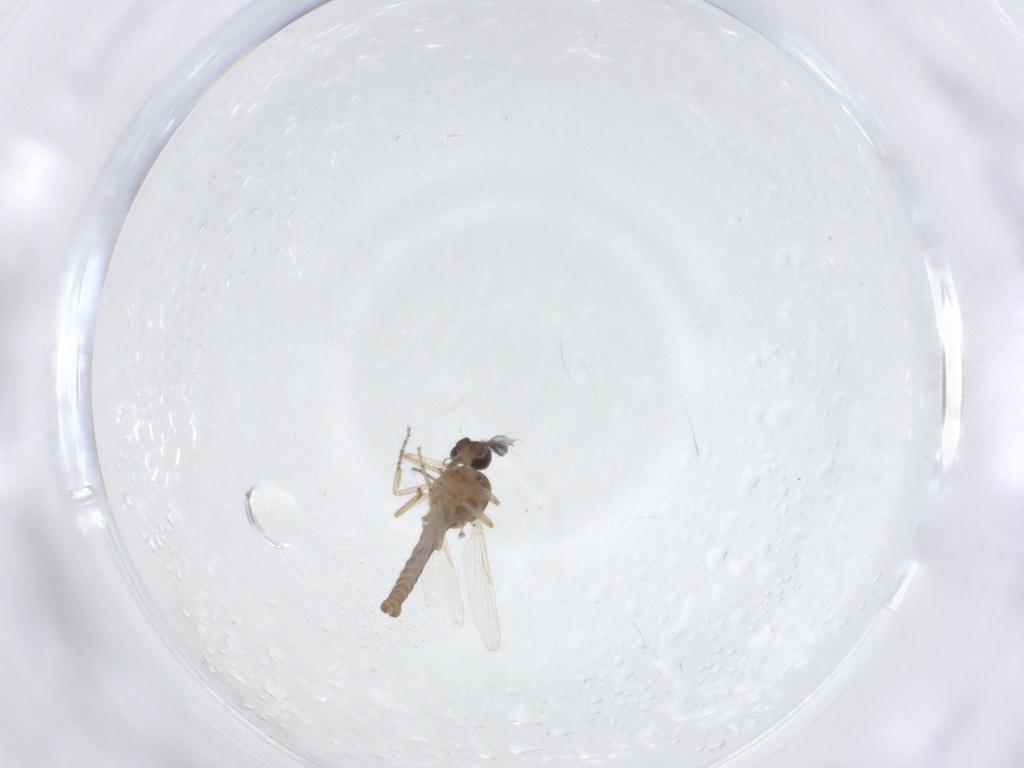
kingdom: Animalia
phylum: Arthropoda
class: Insecta
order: Diptera
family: Ceratopogonidae
